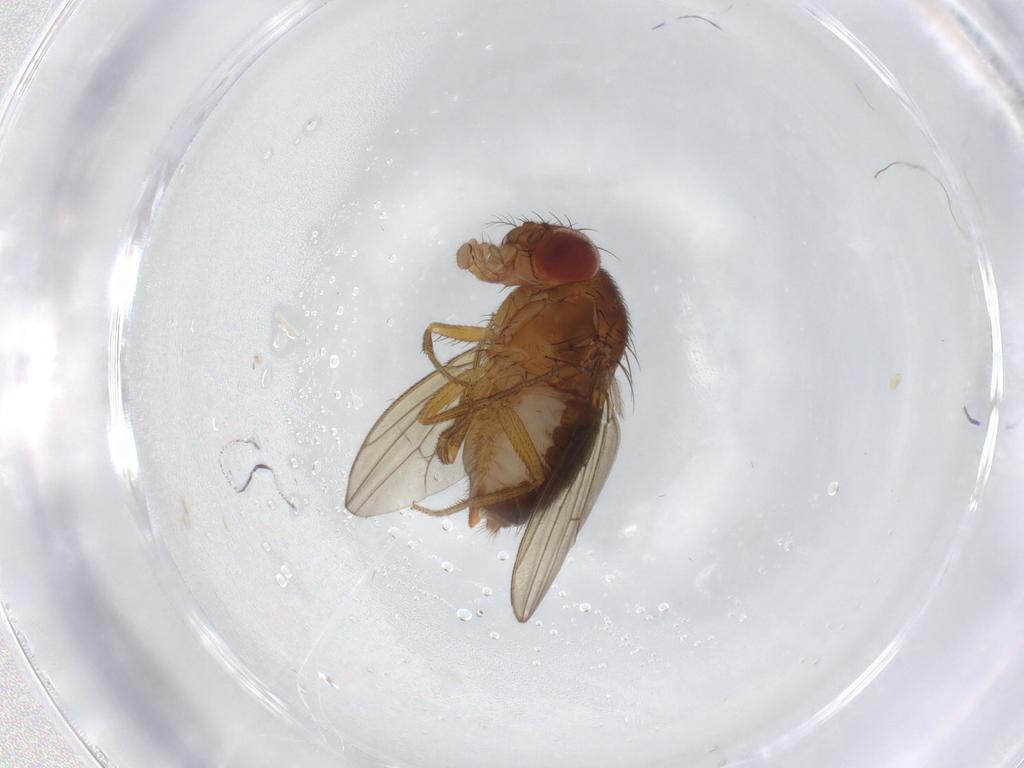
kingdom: Animalia
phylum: Arthropoda
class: Insecta
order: Diptera
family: Drosophilidae
